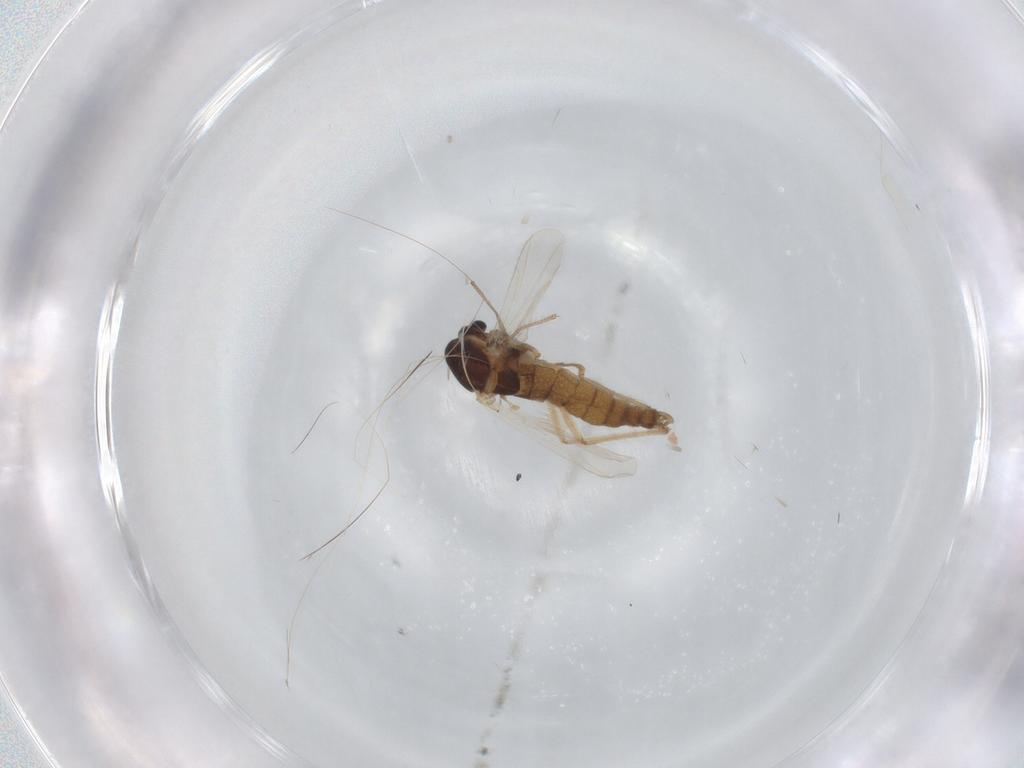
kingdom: Animalia
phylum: Arthropoda
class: Insecta
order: Diptera
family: Chironomidae
